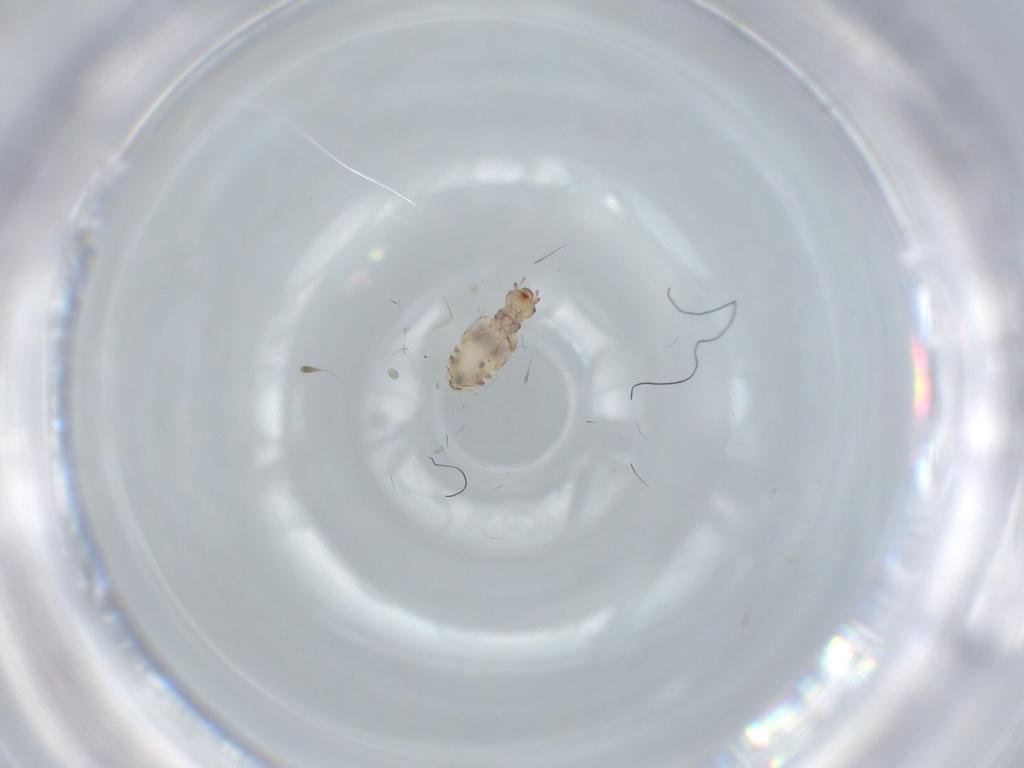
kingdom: Animalia
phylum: Arthropoda
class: Insecta
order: Psocodea
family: Liposcelididae
